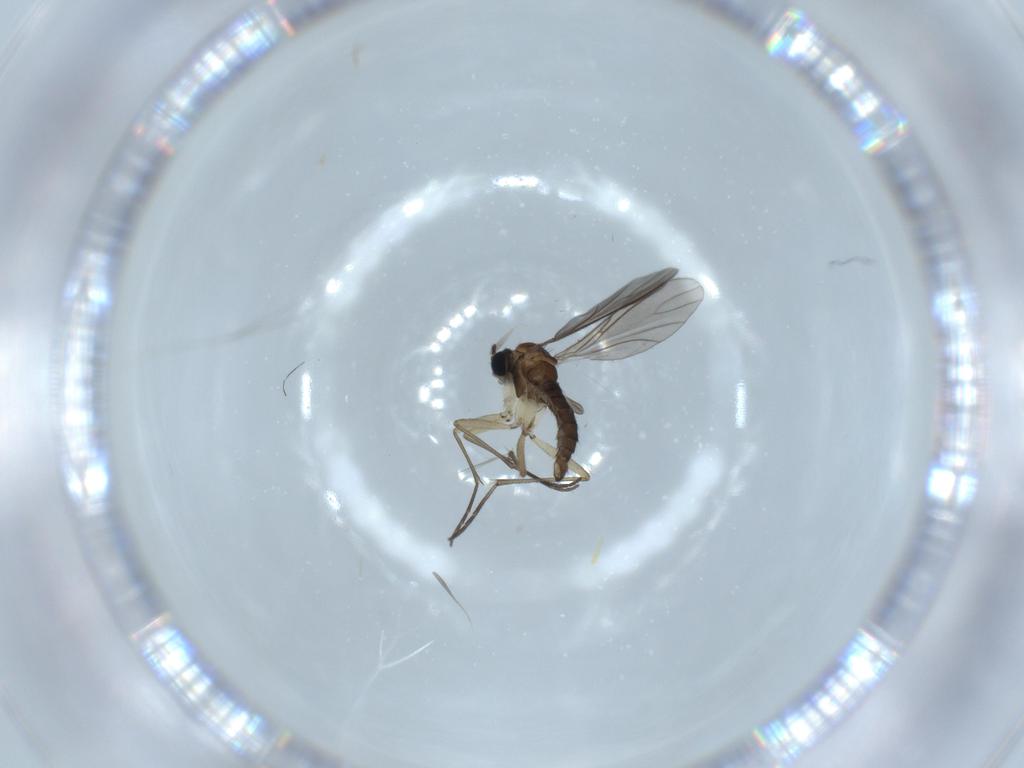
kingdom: Animalia
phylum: Arthropoda
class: Insecta
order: Diptera
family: Sciaridae
